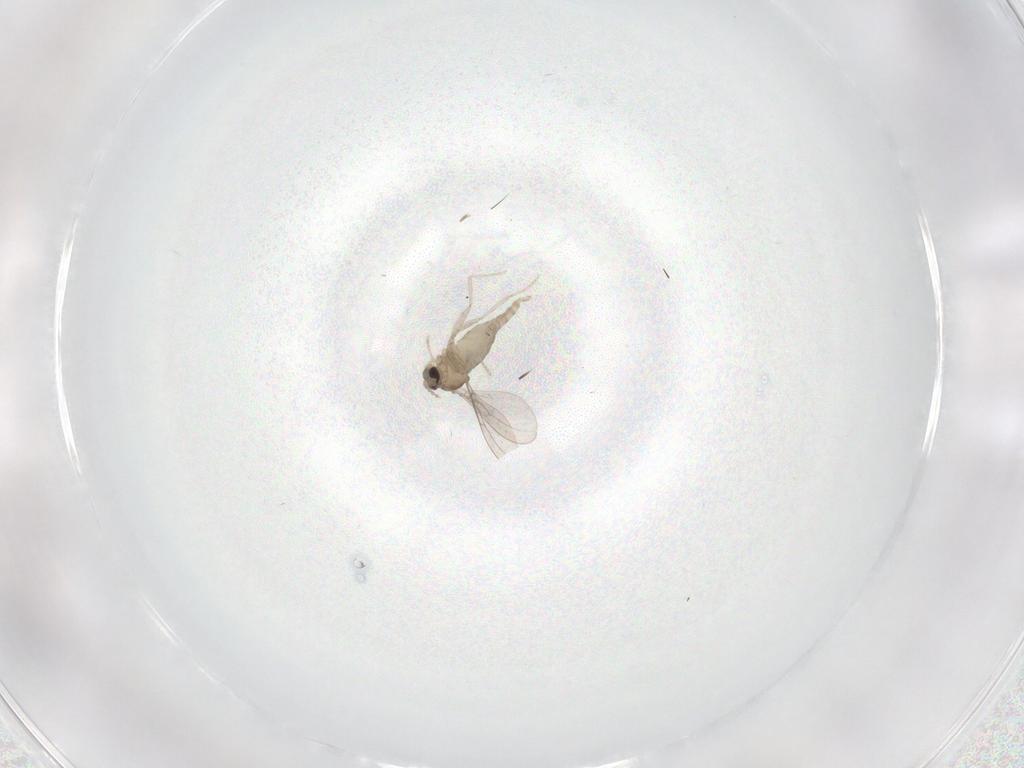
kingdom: Animalia
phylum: Arthropoda
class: Insecta
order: Diptera
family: Cecidomyiidae
